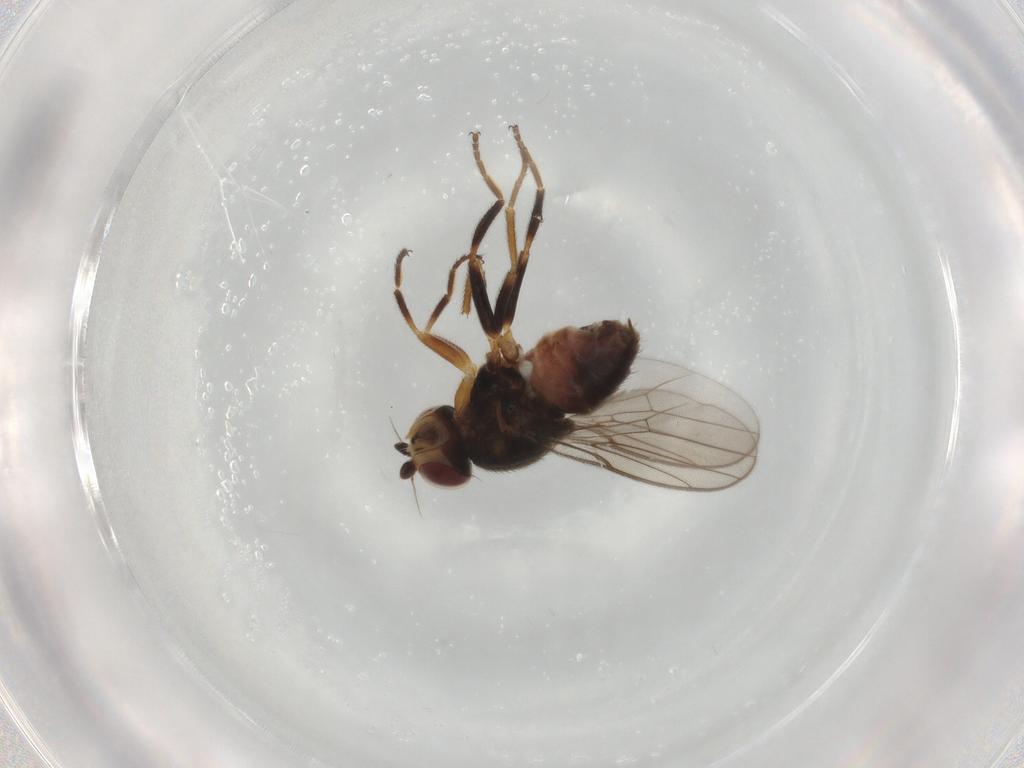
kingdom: Animalia
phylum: Arthropoda
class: Insecta
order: Diptera
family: Chloropidae
